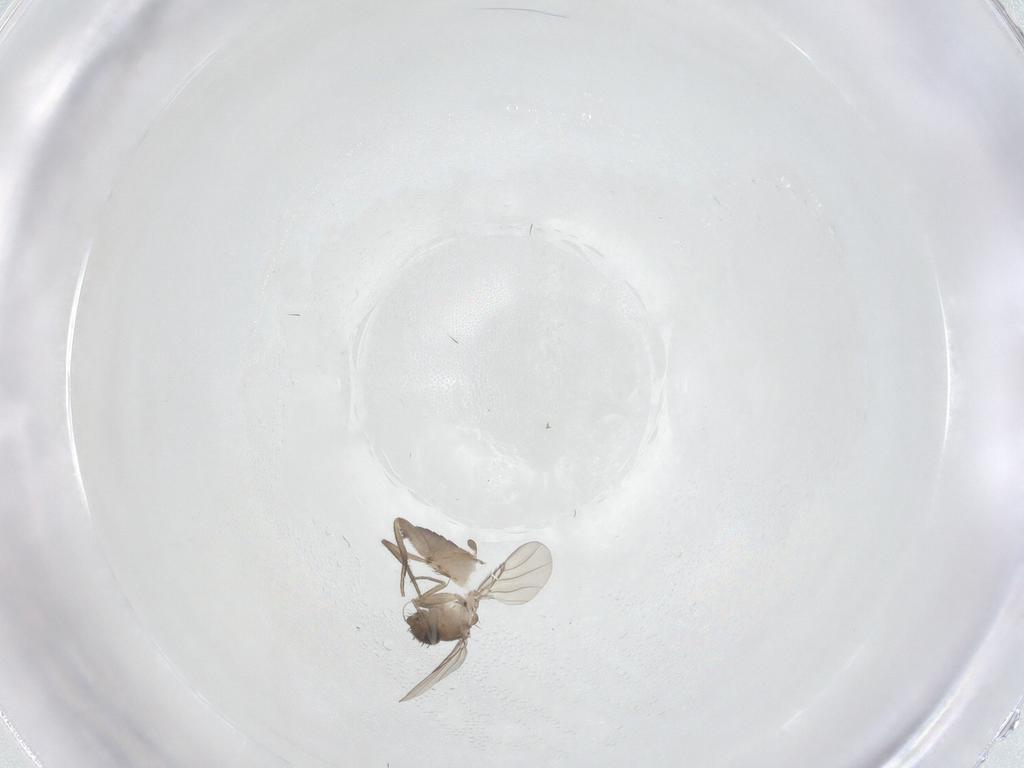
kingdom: Animalia
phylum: Arthropoda
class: Insecta
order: Diptera
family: Phoridae
